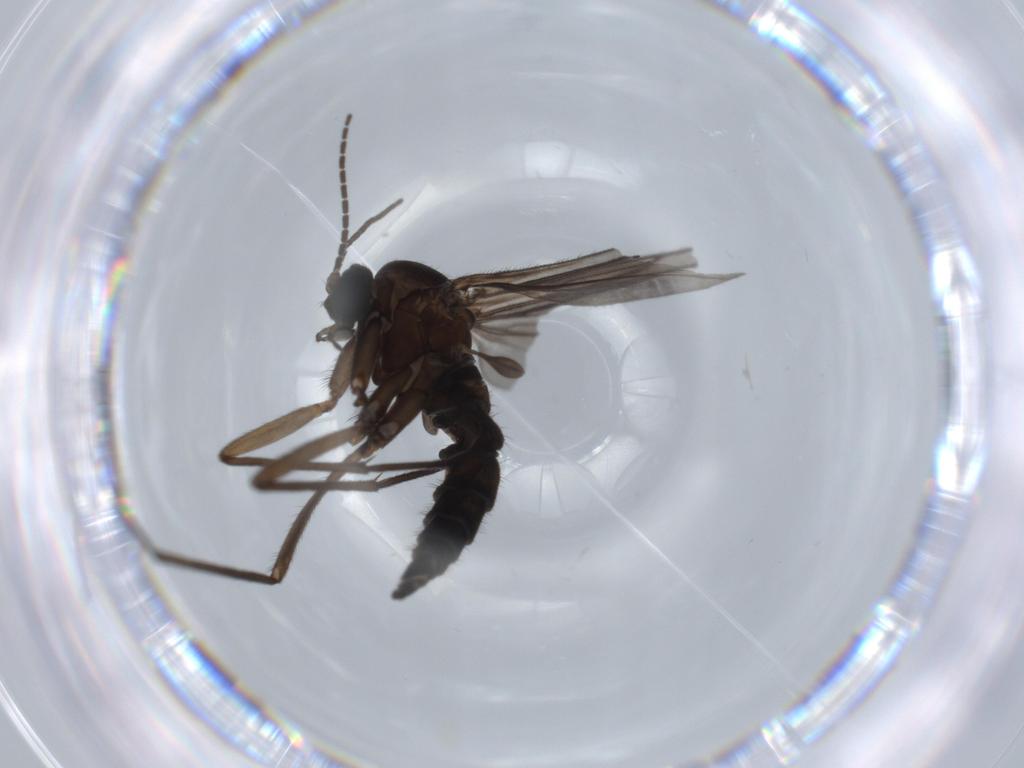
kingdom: Animalia
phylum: Arthropoda
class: Insecta
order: Diptera
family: Sciaridae
